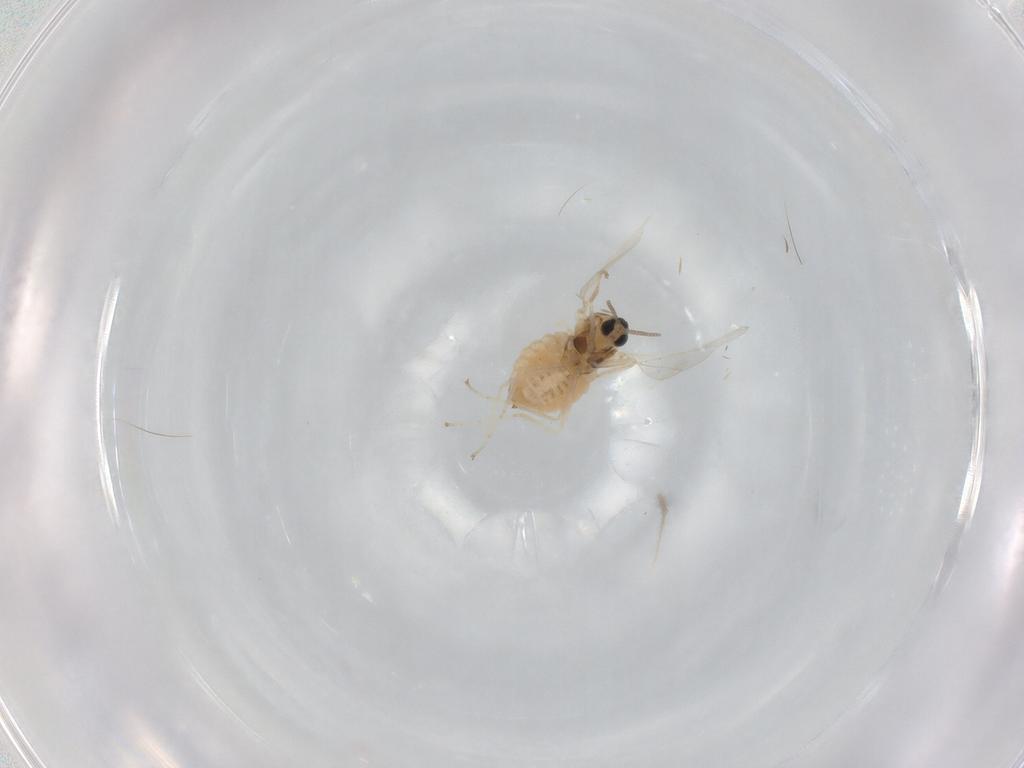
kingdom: Animalia
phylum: Arthropoda
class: Insecta
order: Diptera
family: Cecidomyiidae
